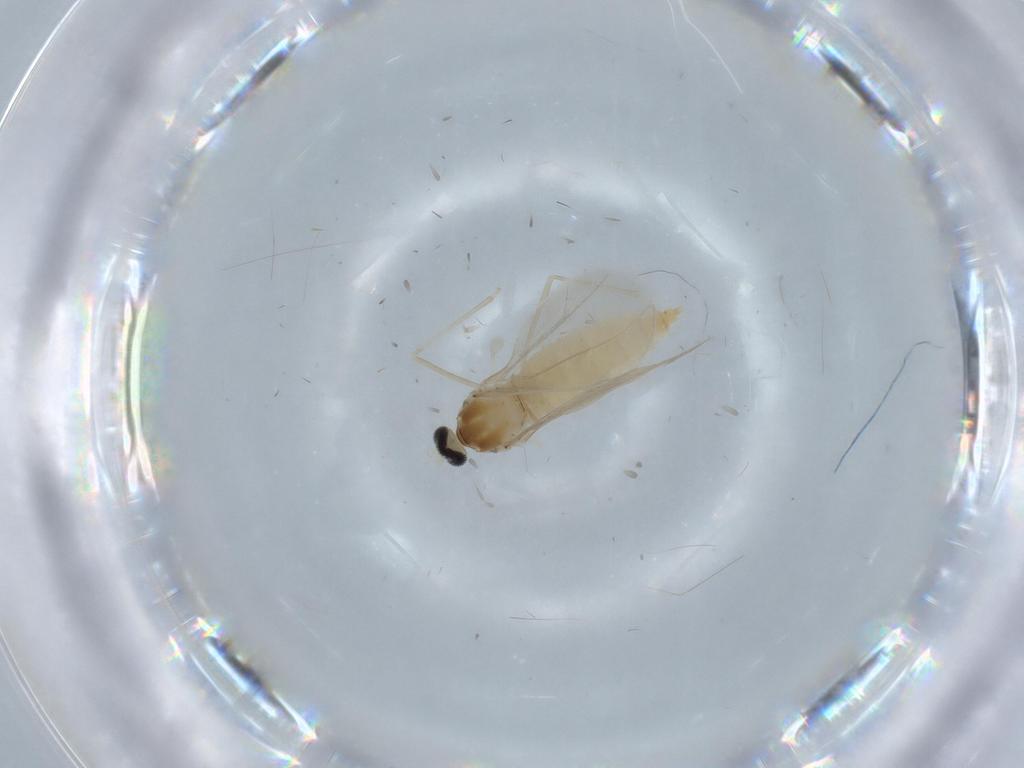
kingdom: Animalia
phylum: Arthropoda
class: Insecta
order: Diptera
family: Cecidomyiidae
